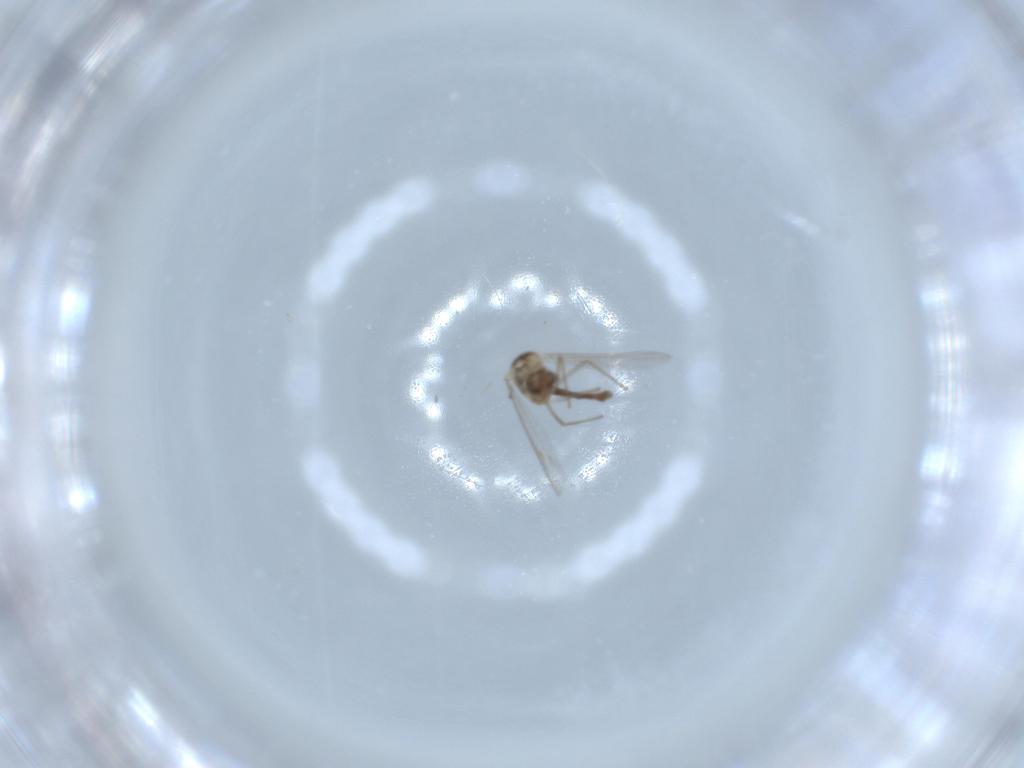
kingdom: Animalia
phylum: Arthropoda
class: Insecta
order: Diptera
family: Chironomidae
